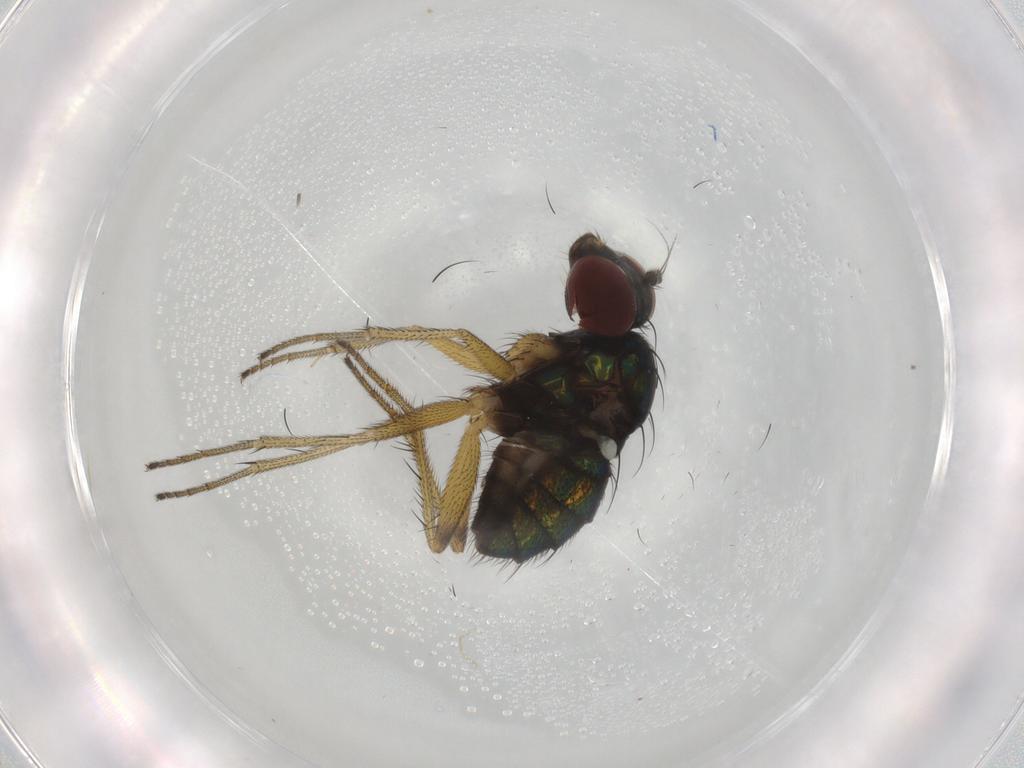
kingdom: Animalia
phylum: Arthropoda
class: Insecta
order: Diptera
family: Dolichopodidae
